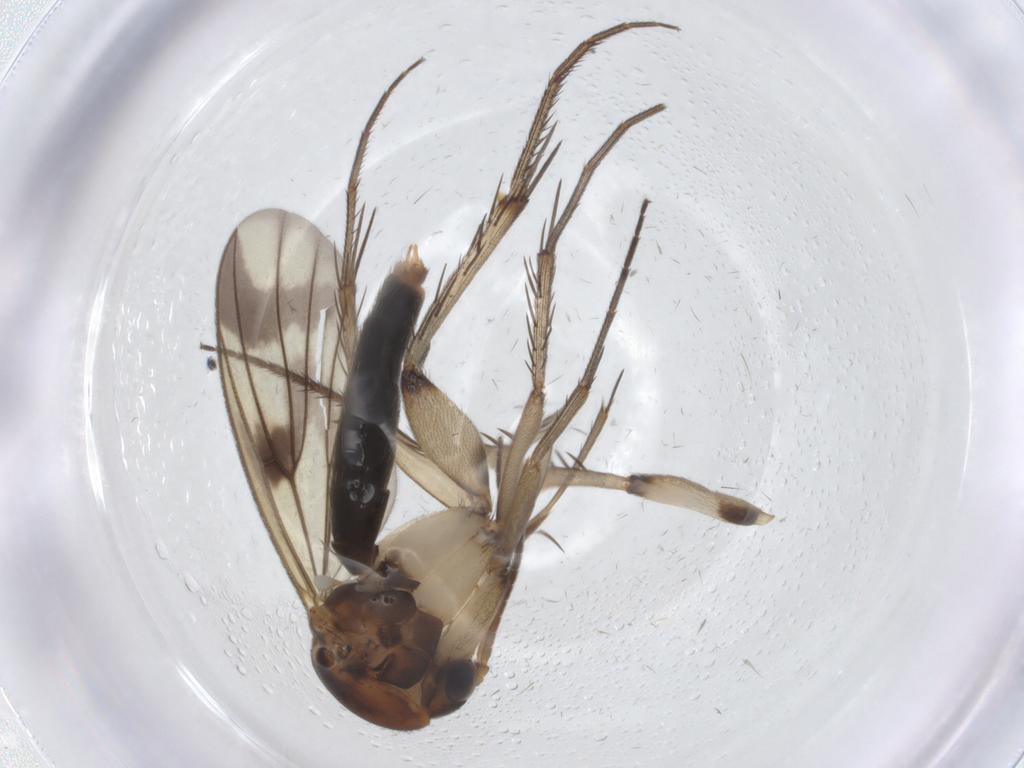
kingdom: Animalia
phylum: Arthropoda
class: Insecta
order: Diptera
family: Mycetophilidae
